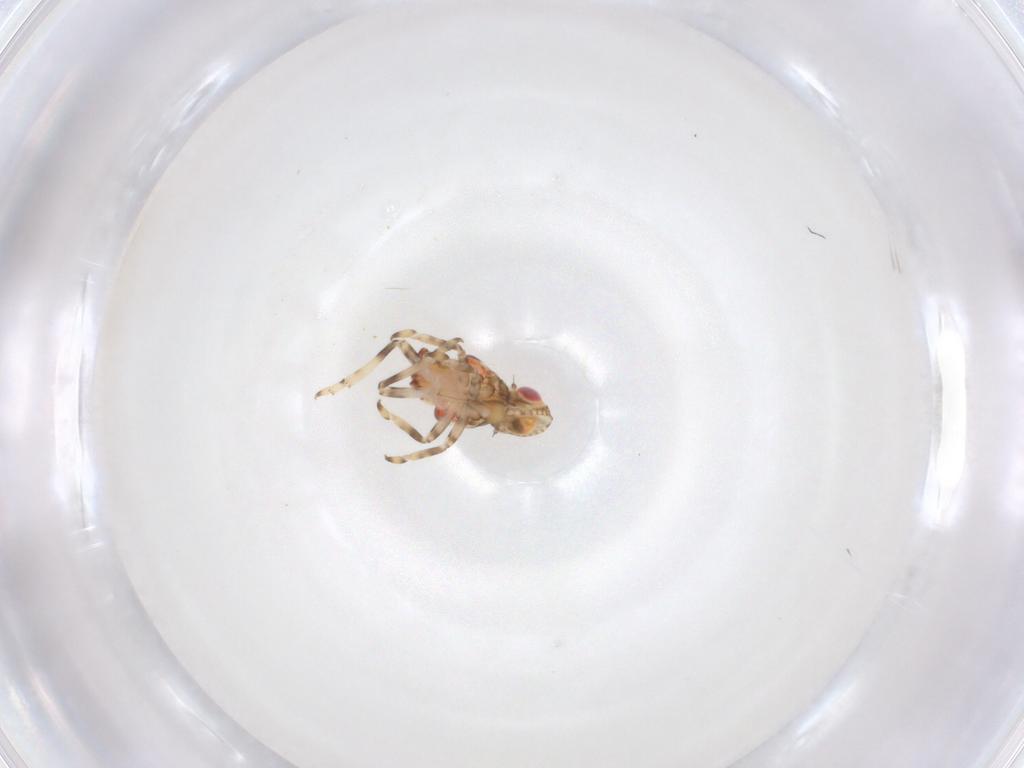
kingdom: Animalia
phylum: Arthropoda
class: Insecta
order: Hemiptera
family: Tropiduchidae
